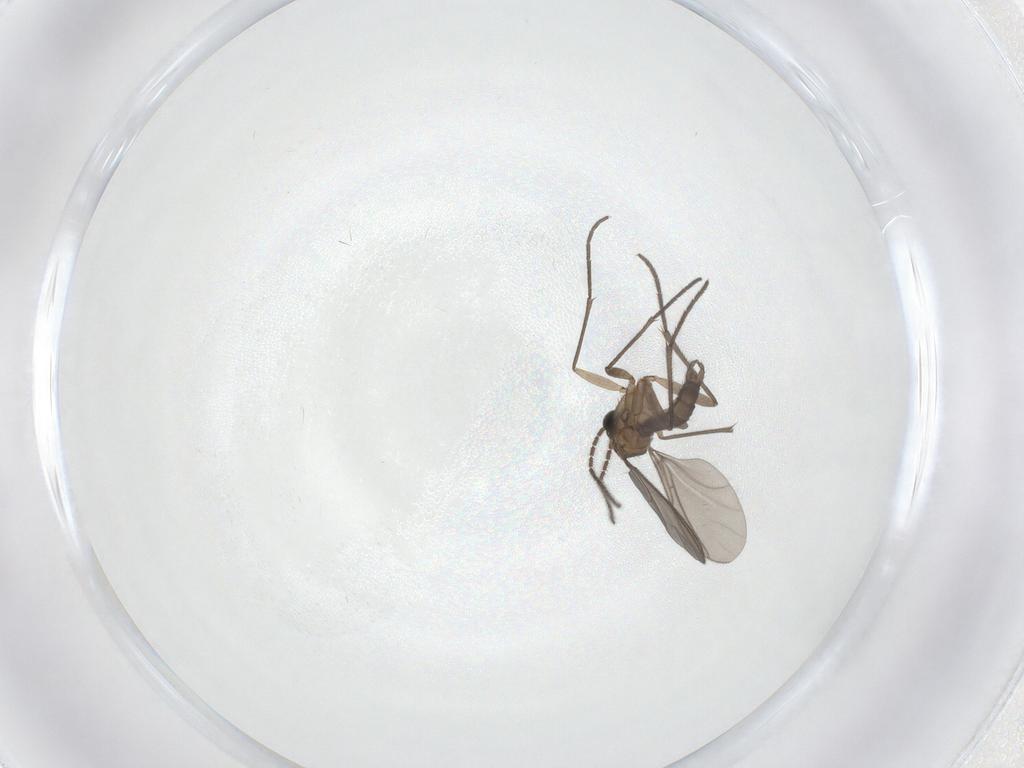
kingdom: Animalia
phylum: Arthropoda
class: Insecta
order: Diptera
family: Sciaridae
